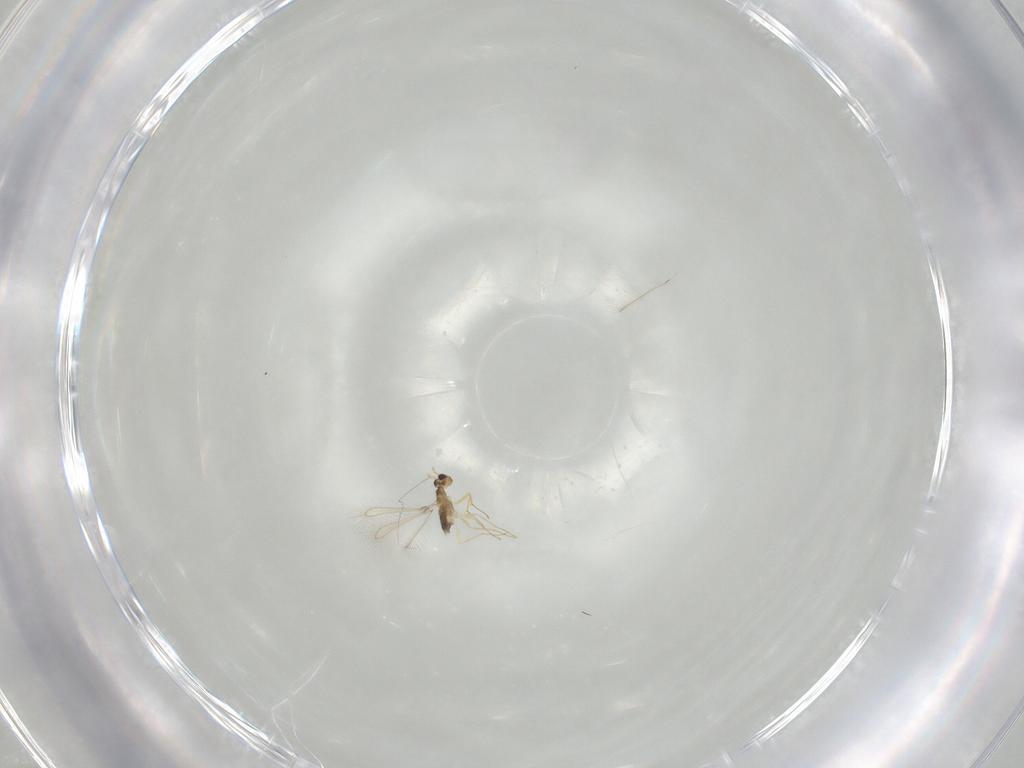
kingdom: Animalia
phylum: Arthropoda
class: Insecta
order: Hymenoptera
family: Mymaridae
